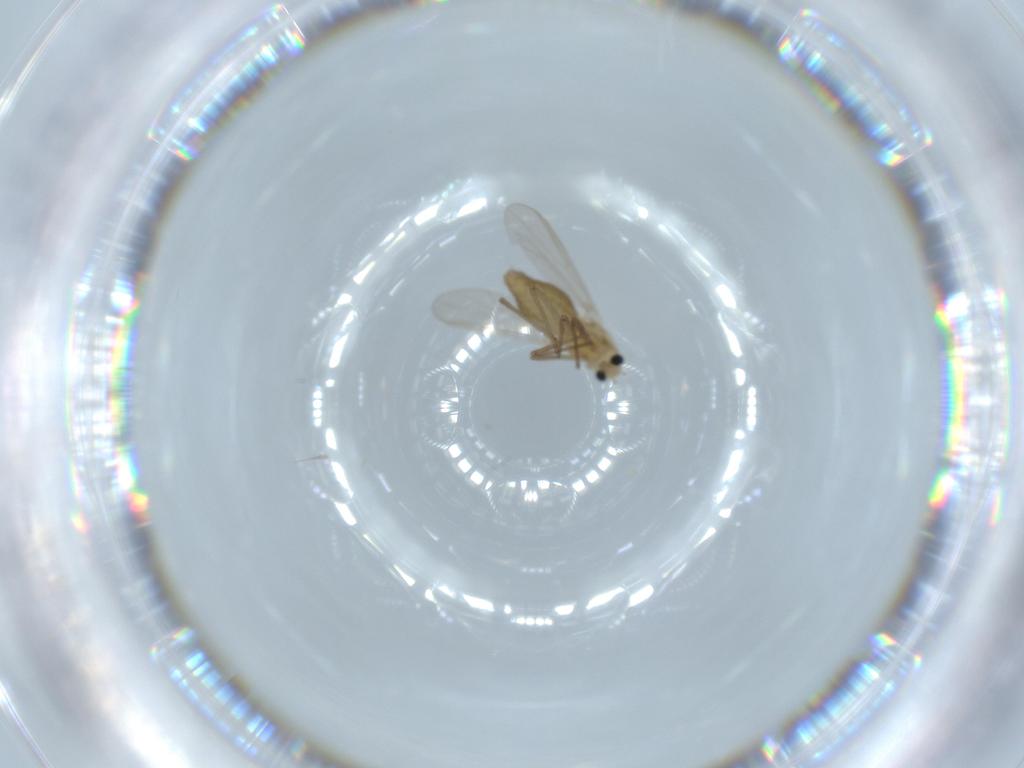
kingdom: Animalia
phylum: Arthropoda
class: Insecta
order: Diptera
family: Chironomidae
